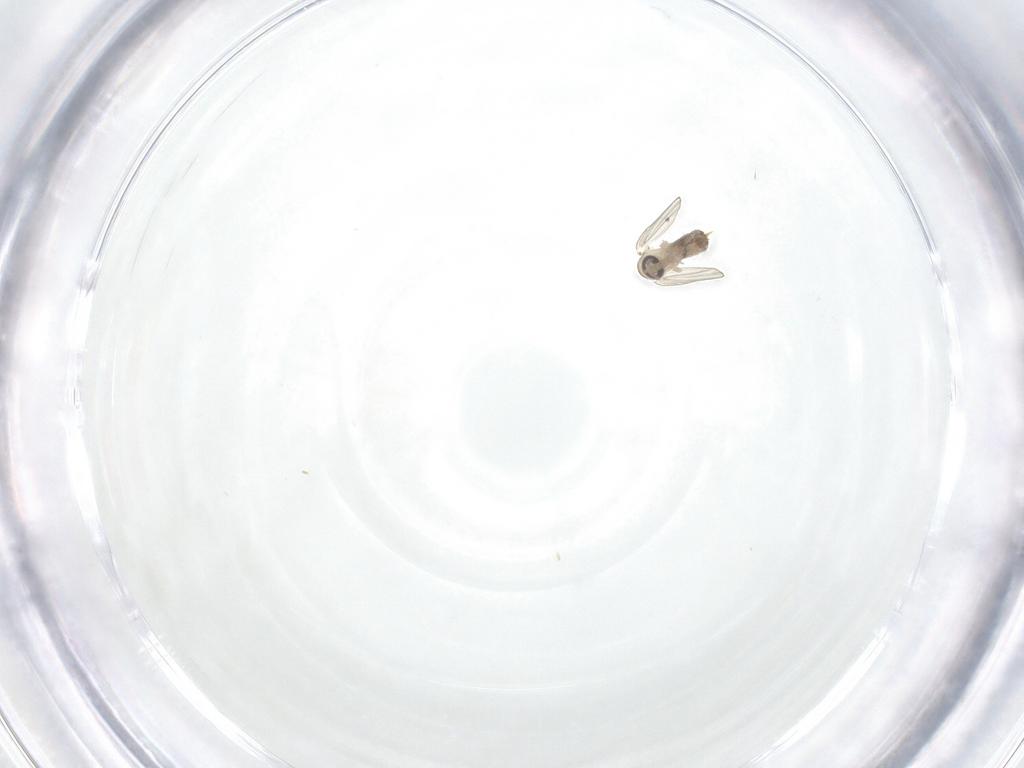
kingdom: Animalia
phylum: Arthropoda
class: Insecta
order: Diptera
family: Psychodidae
